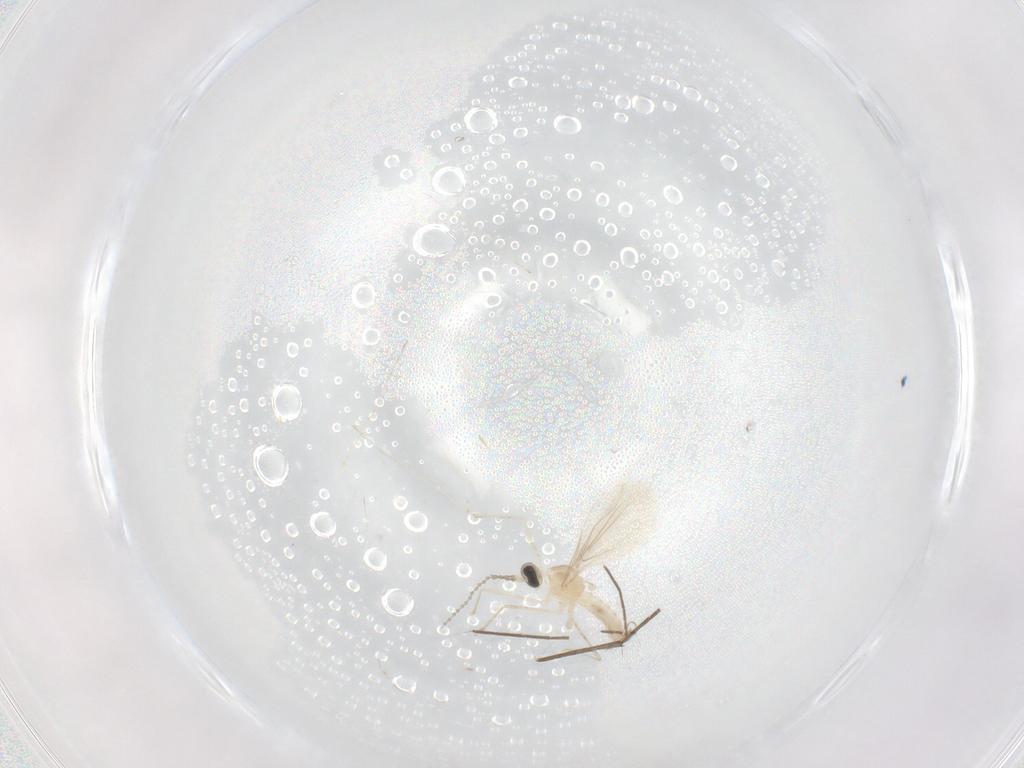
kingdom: Animalia
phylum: Arthropoda
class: Insecta
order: Diptera
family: Cecidomyiidae
